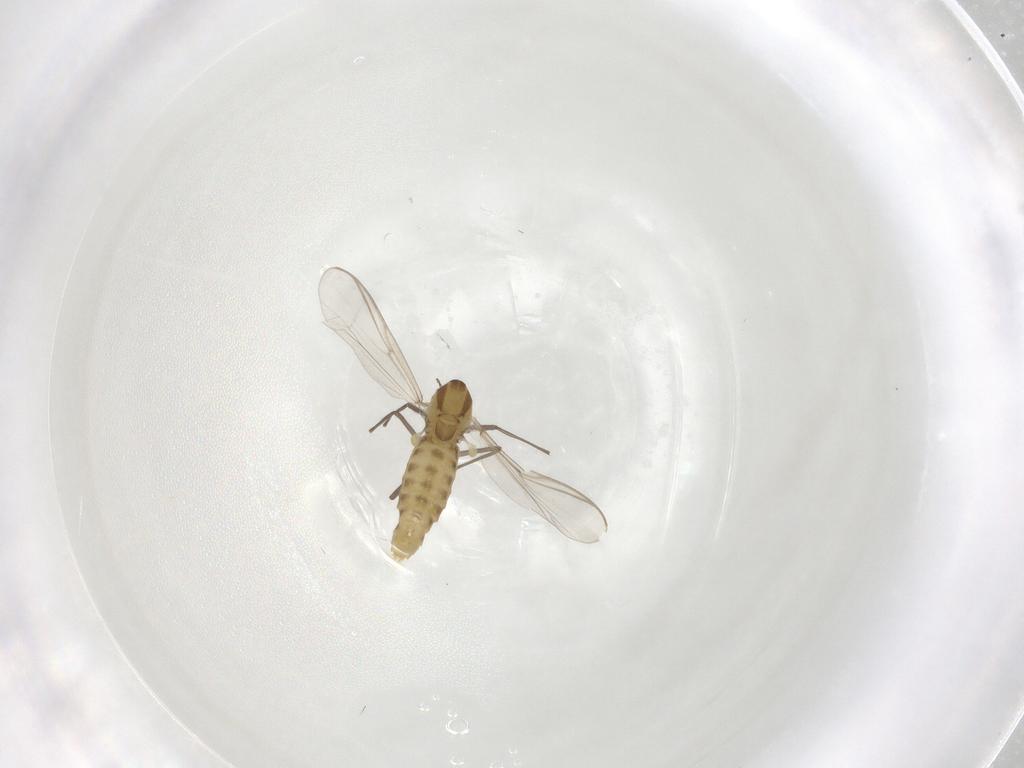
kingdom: Animalia
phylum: Arthropoda
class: Insecta
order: Diptera
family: Chironomidae
